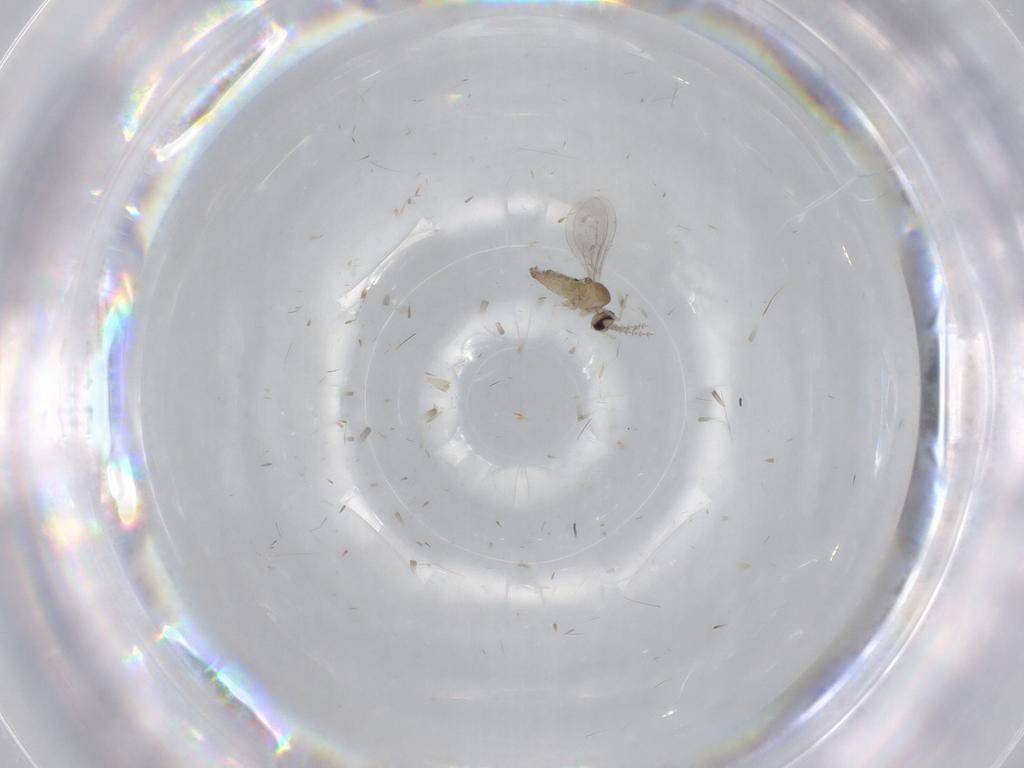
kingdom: Animalia
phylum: Arthropoda
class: Insecta
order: Diptera
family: Cecidomyiidae
